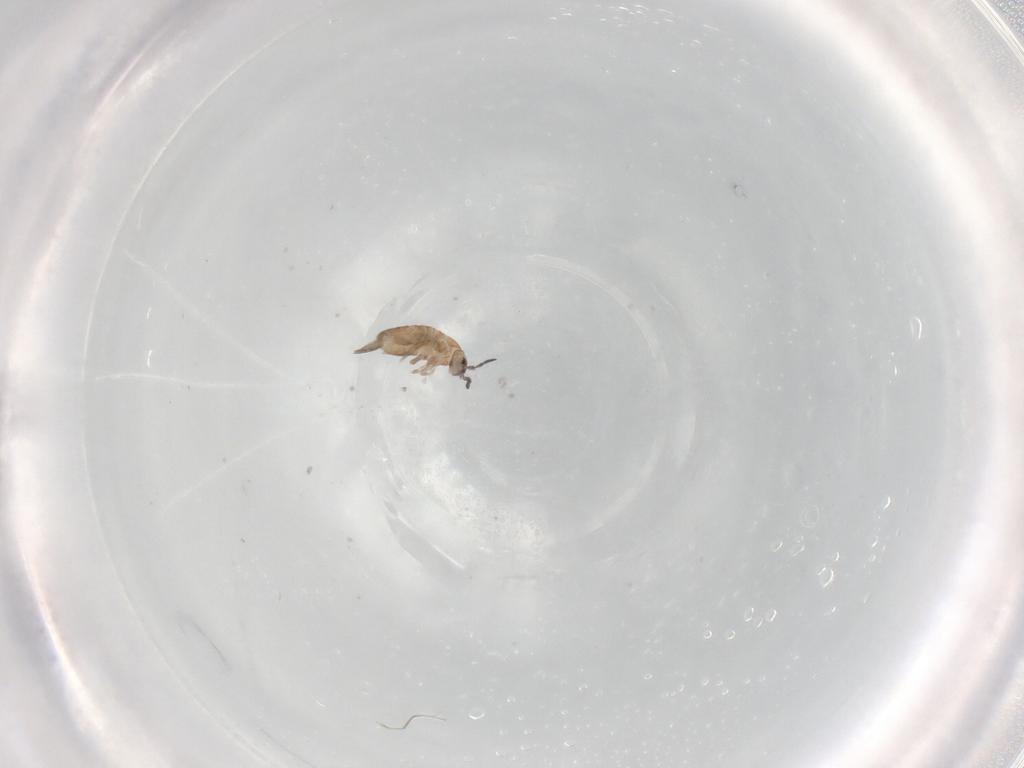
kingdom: Animalia
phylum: Arthropoda
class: Collembola
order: Entomobryomorpha
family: Entomobryidae
